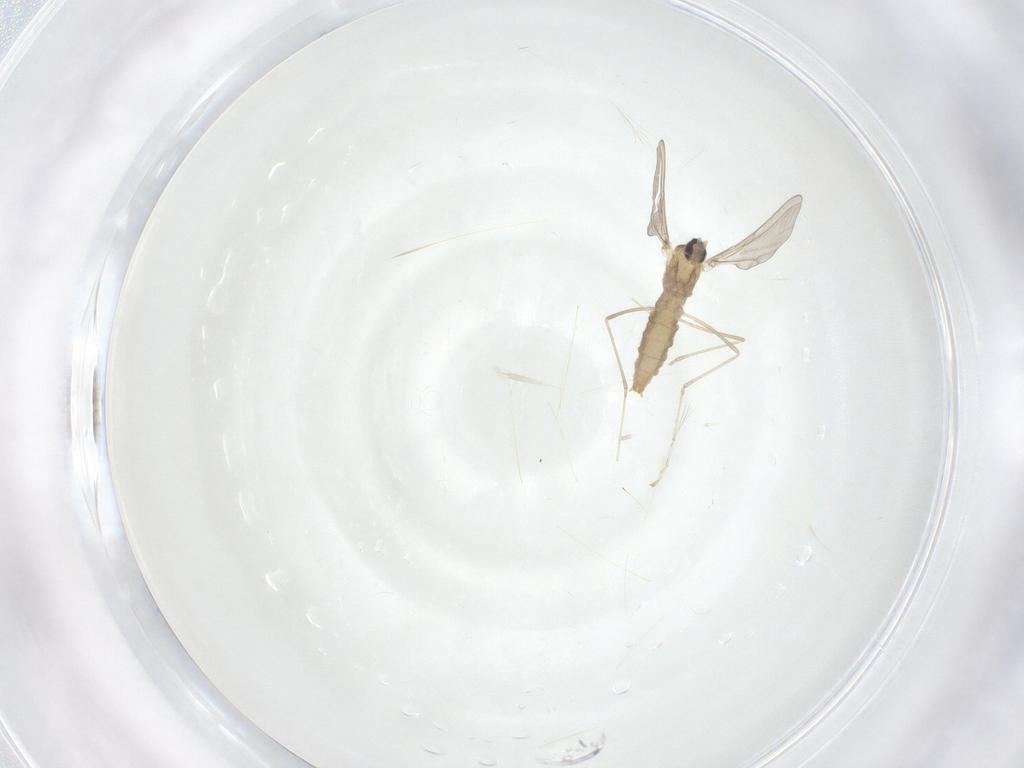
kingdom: Animalia
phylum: Arthropoda
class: Insecta
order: Diptera
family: Cecidomyiidae
